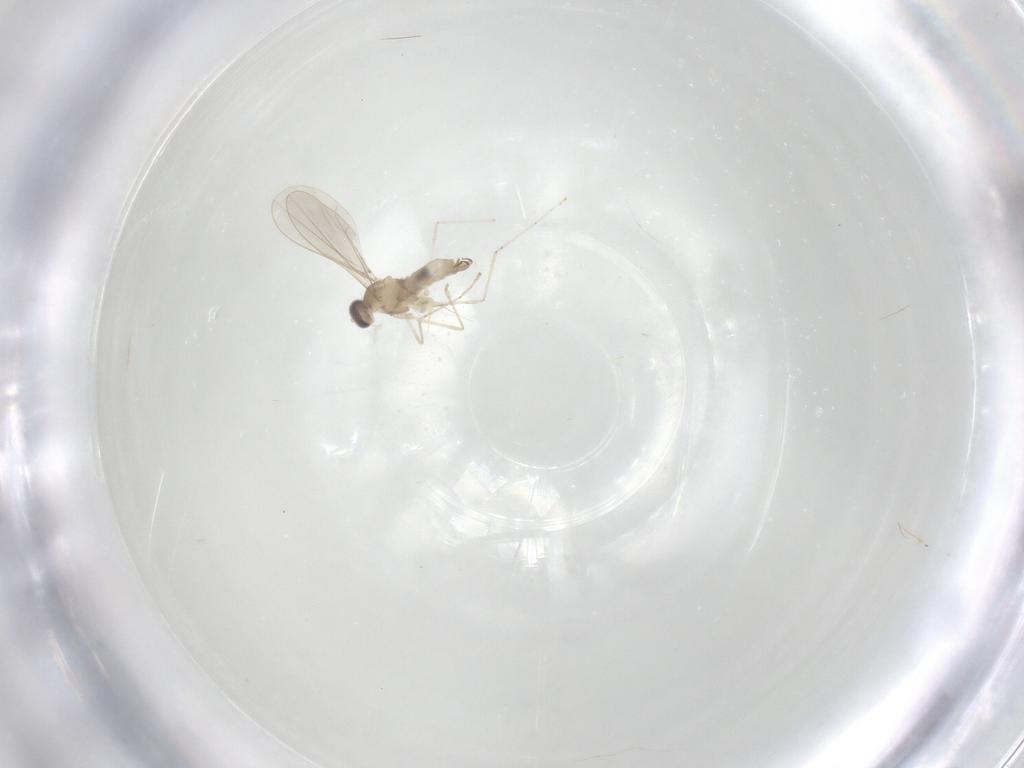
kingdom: Animalia
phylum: Arthropoda
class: Insecta
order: Diptera
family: Cecidomyiidae
